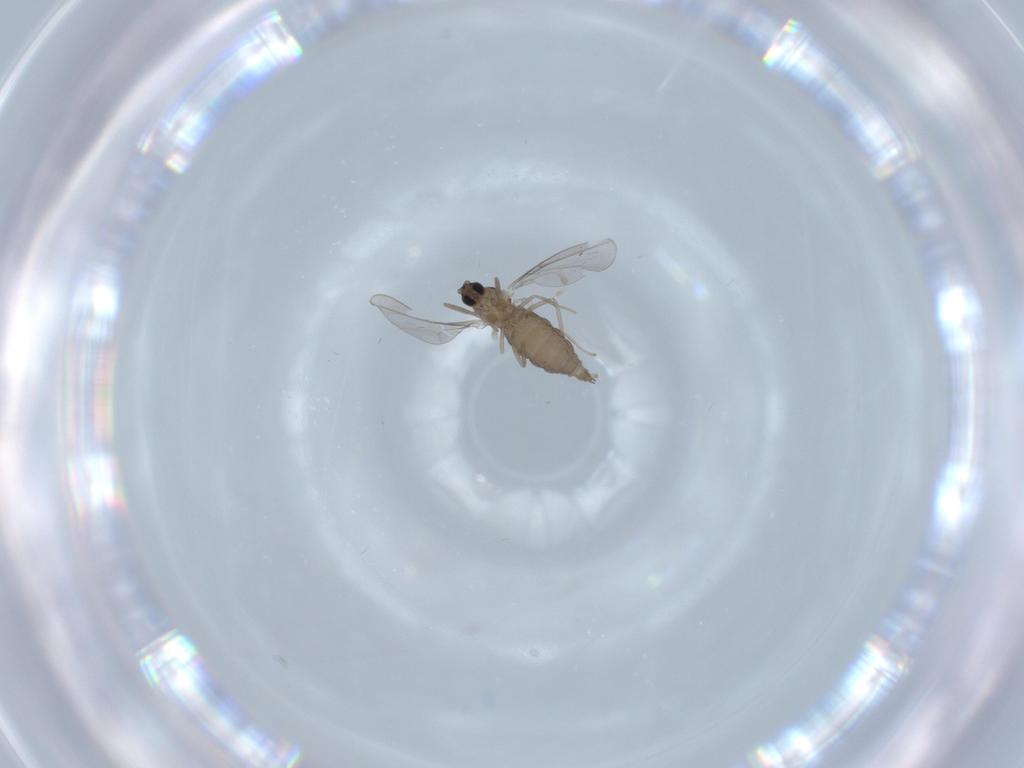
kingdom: Animalia
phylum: Arthropoda
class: Insecta
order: Diptera
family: Cecidomyiidae
